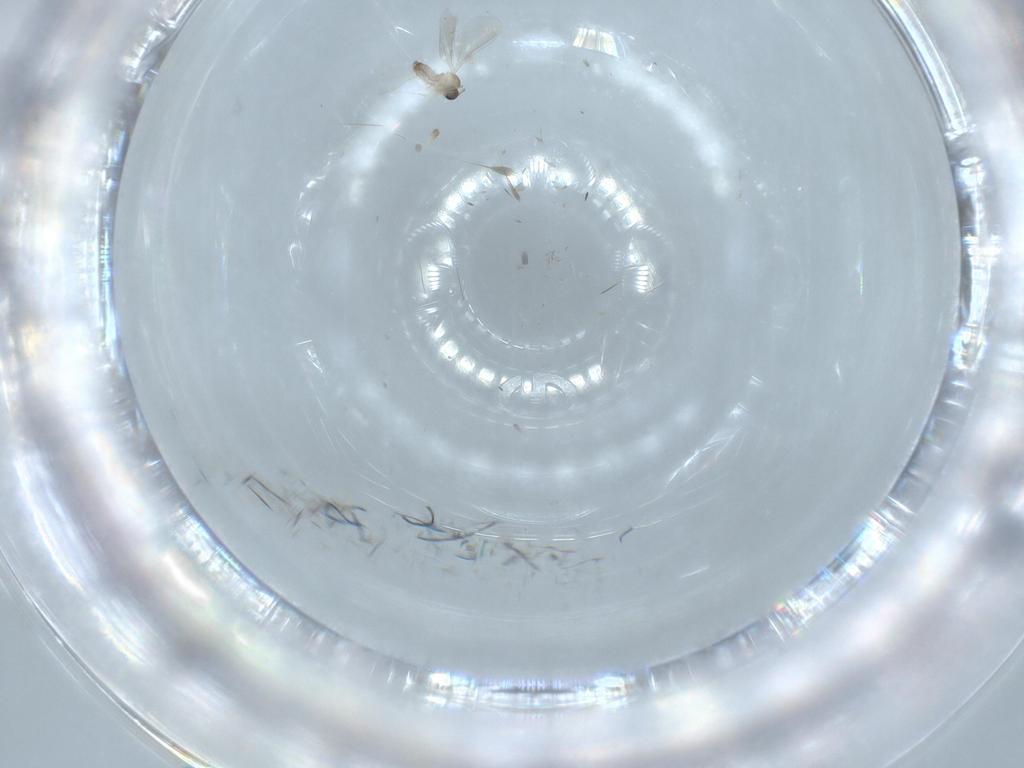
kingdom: Animalia
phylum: Arthropoda
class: Insecta
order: Diptera
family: Cecidomyiidae
